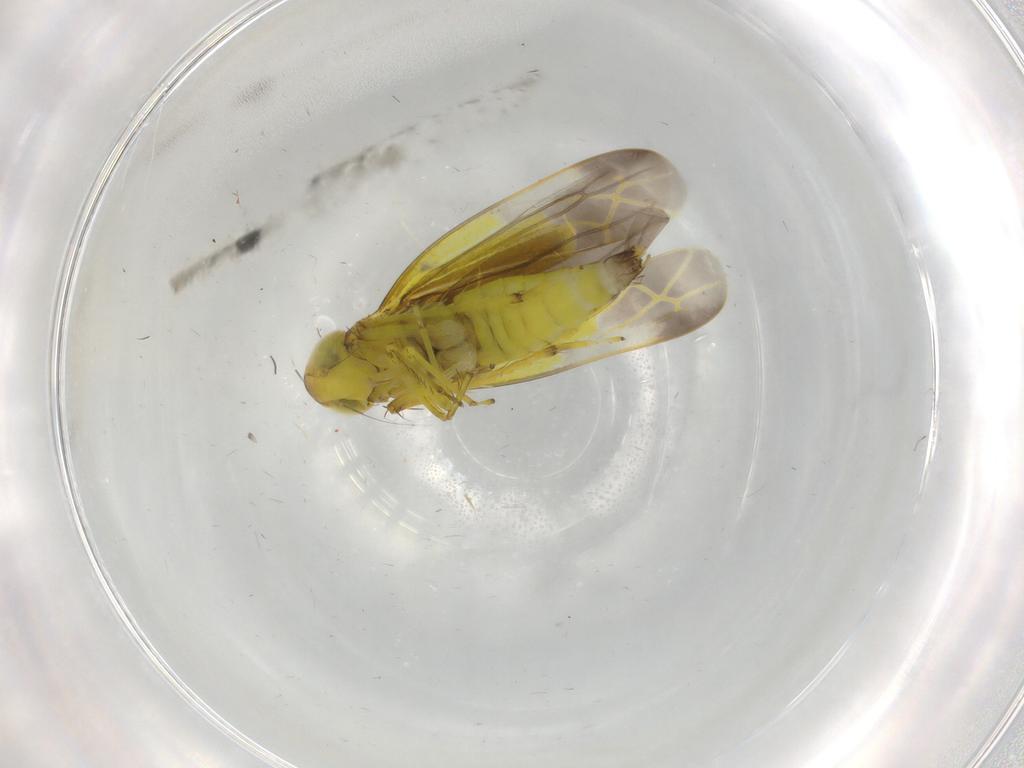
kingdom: Animalia
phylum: Arthropoda
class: Insecta
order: Hemiptera
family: Cicadellidae
